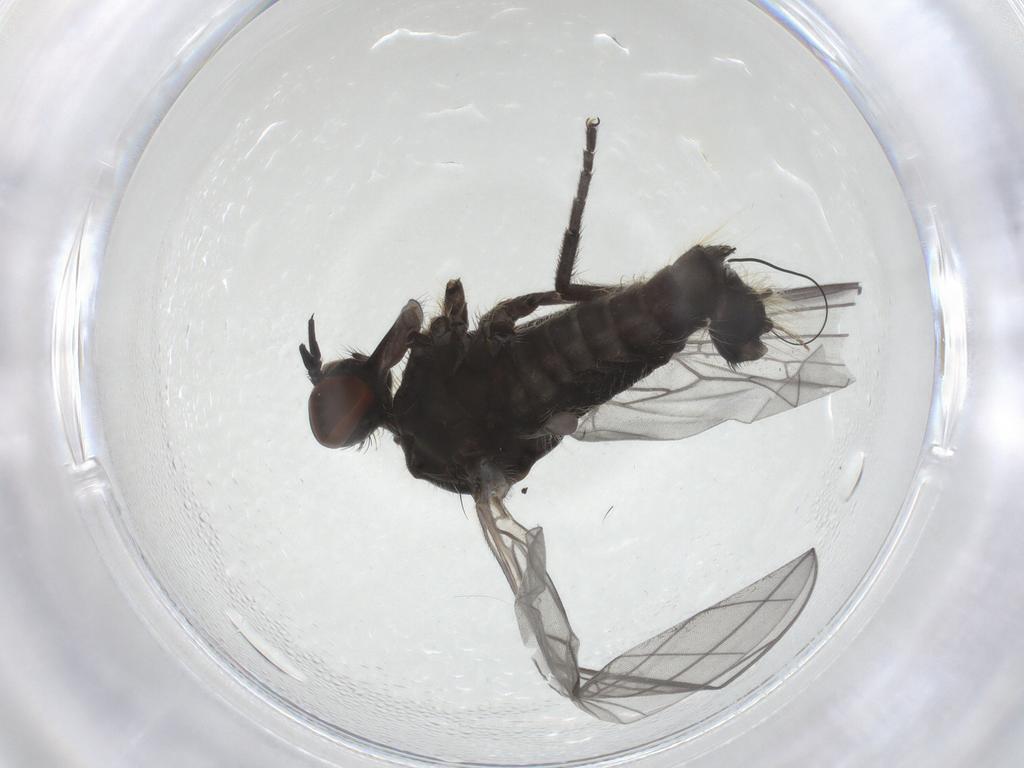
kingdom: Animalia
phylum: Arthropoda
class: Insecta
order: Diptera
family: Empididae
